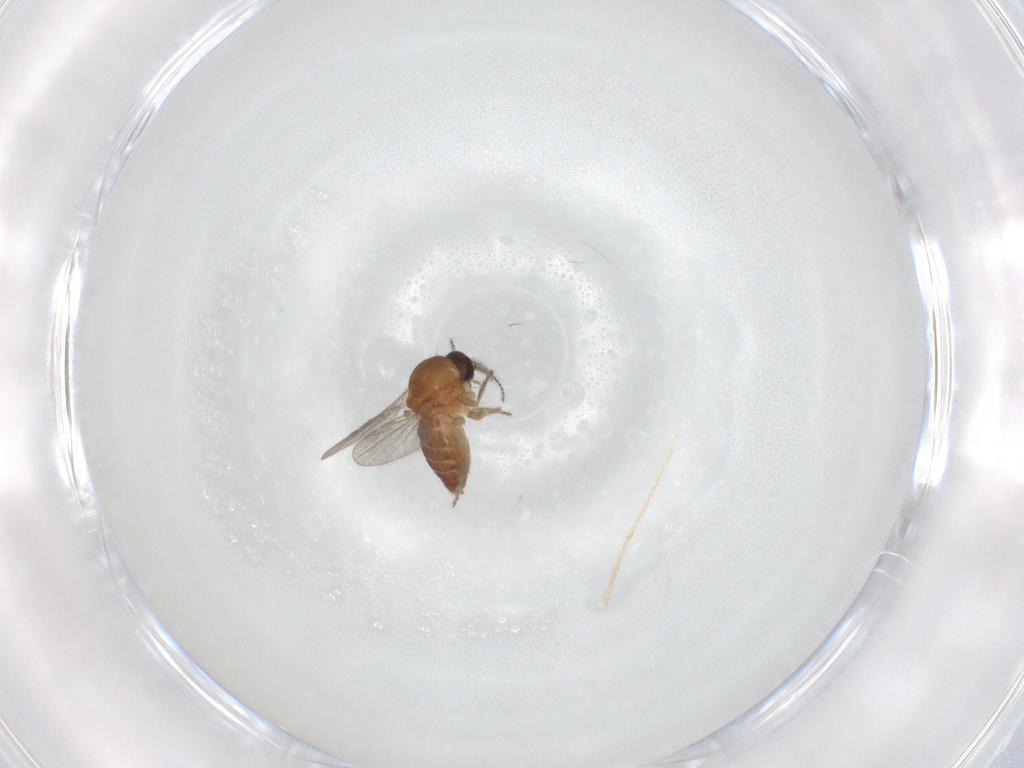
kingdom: Animalia
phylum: Arthropoda
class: Insecta
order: Diptera
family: Ceratopogonidae
